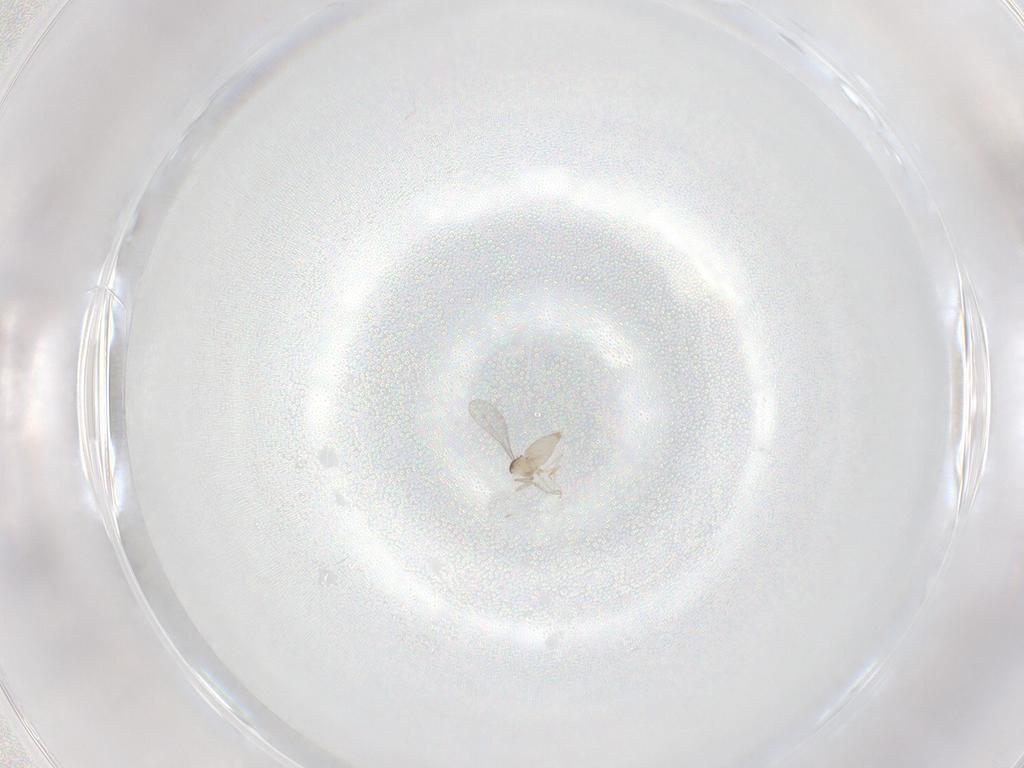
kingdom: Animalia
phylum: Arthropoda
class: Insecta
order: Diptera
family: Cecidomyiidae
